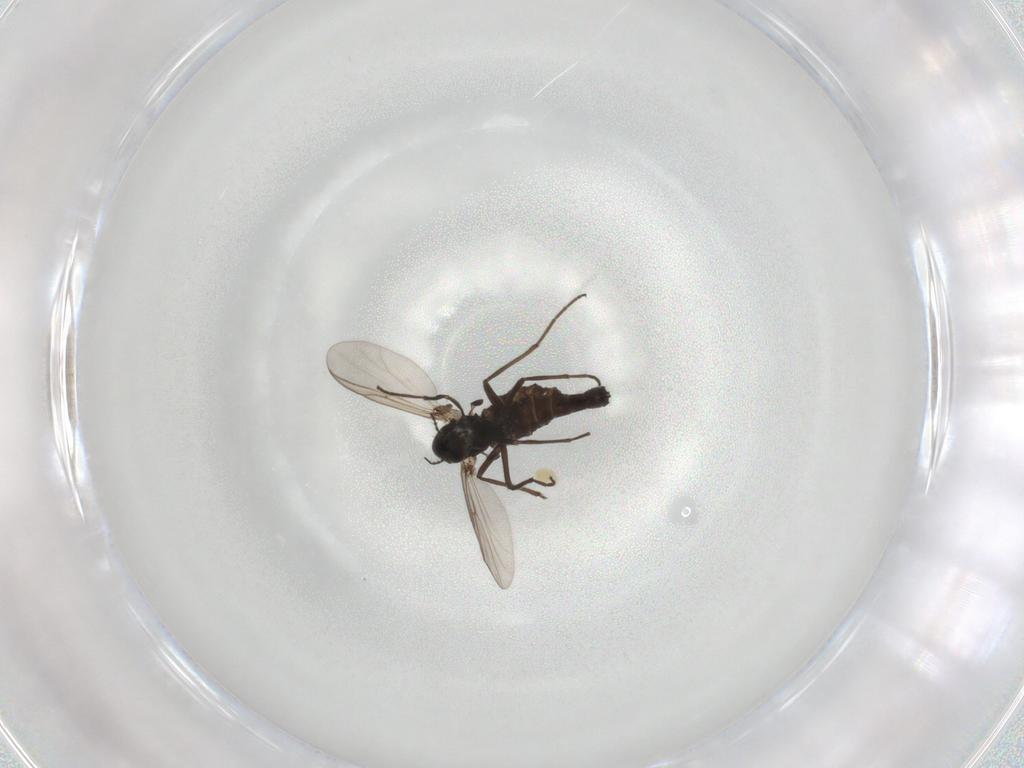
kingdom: Animalia
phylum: Arthropoda
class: Insecta
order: Diptera
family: Chironomidae
